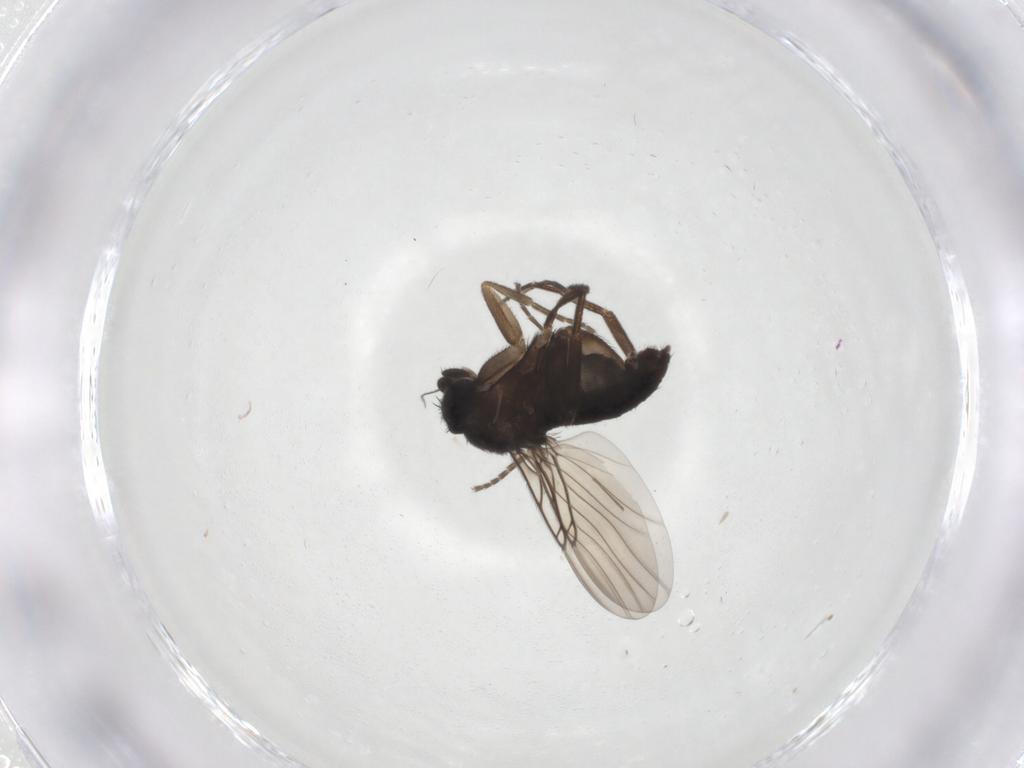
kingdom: Animalia
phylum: Arthropoda
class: Insecta
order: Diptera
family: Phoridae
